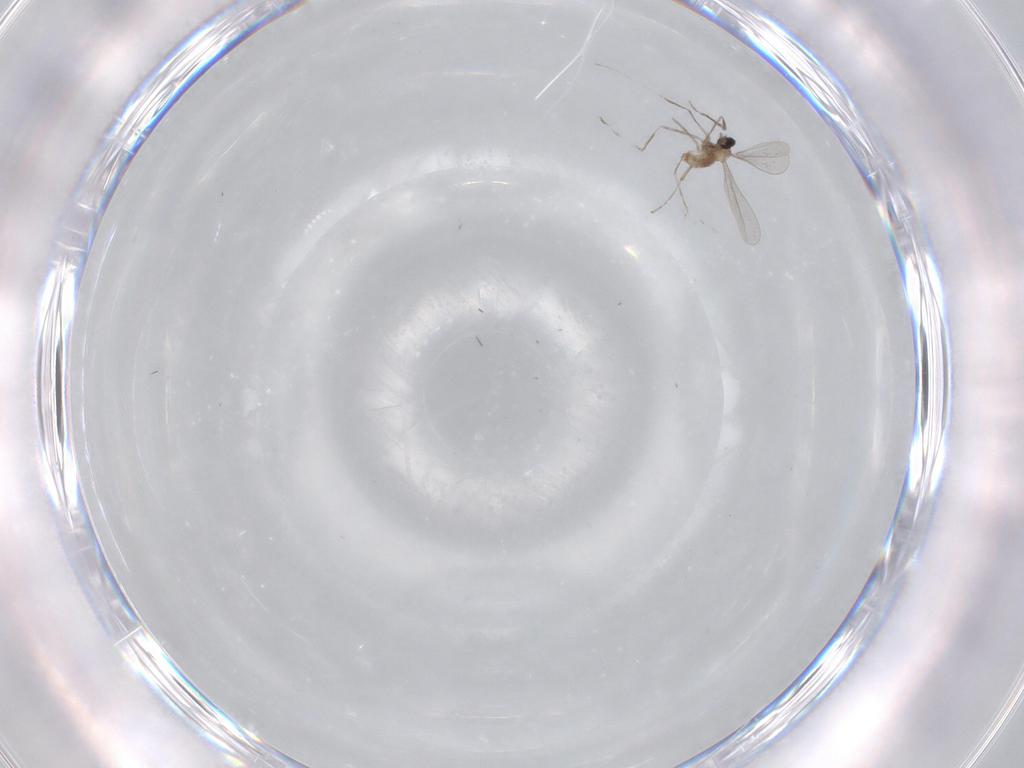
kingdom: Animalia
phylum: Arthropoda
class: Insecta
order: Diptera
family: Cecidomyiidae
